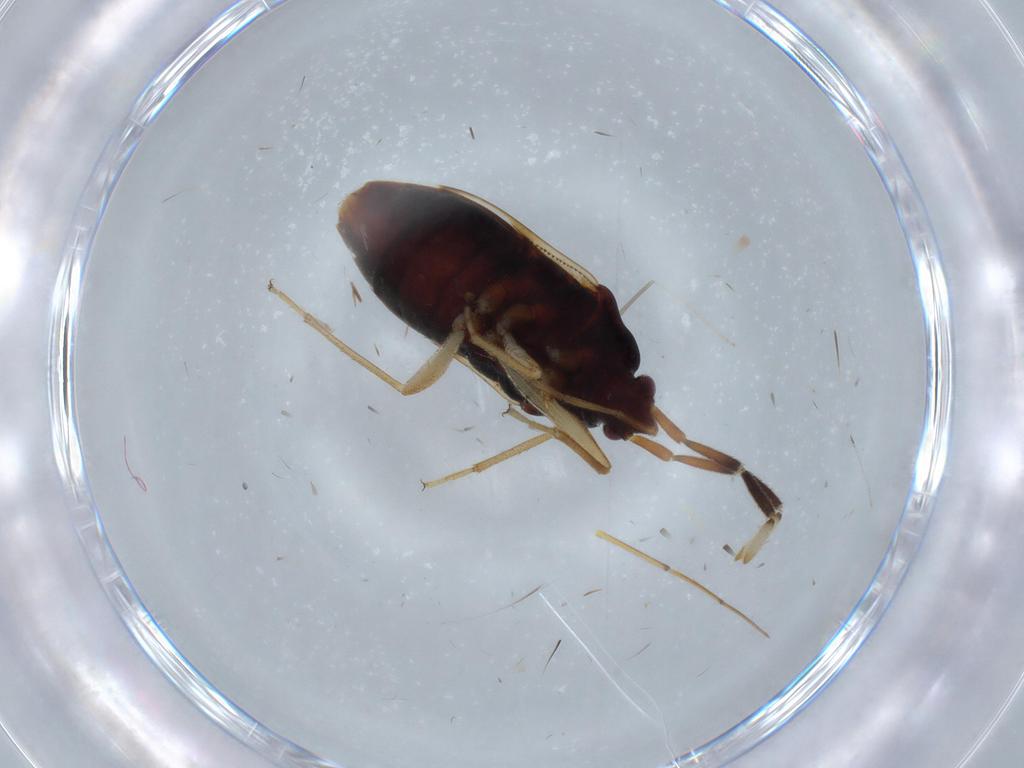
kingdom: Animalia
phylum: Arthropoda
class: Insecta
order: Hemiptera
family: Rhyparochromidae
